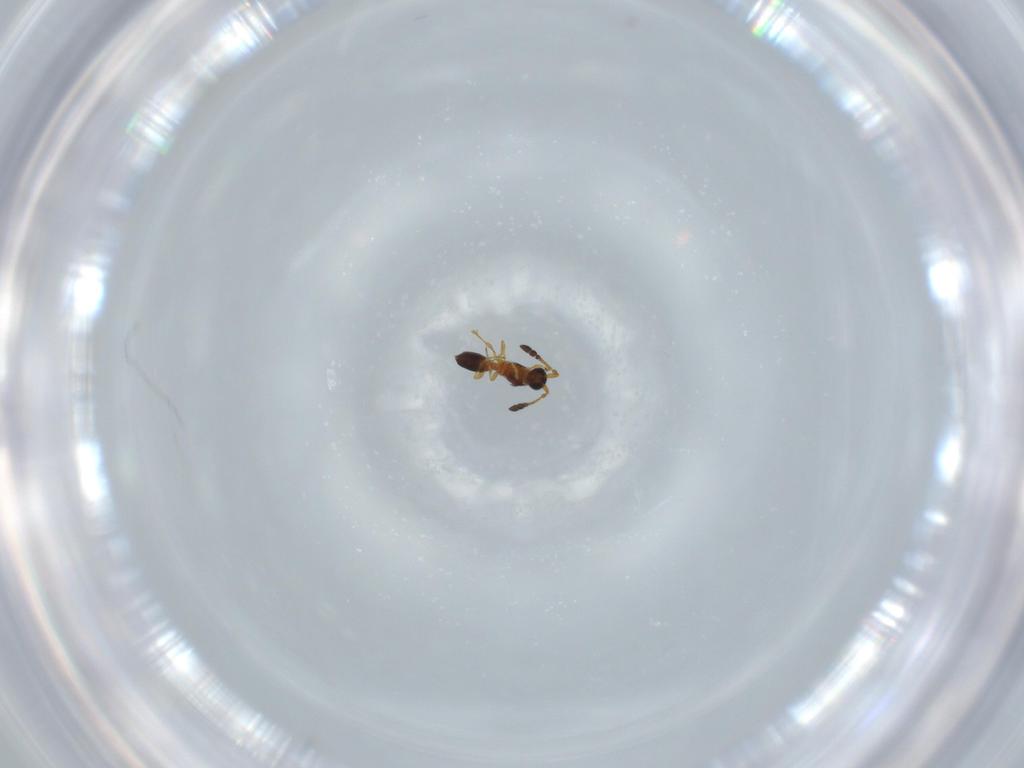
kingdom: Animalia
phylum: Arthropoda
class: Insecta
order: Hymenoptera
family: Diapriidae
